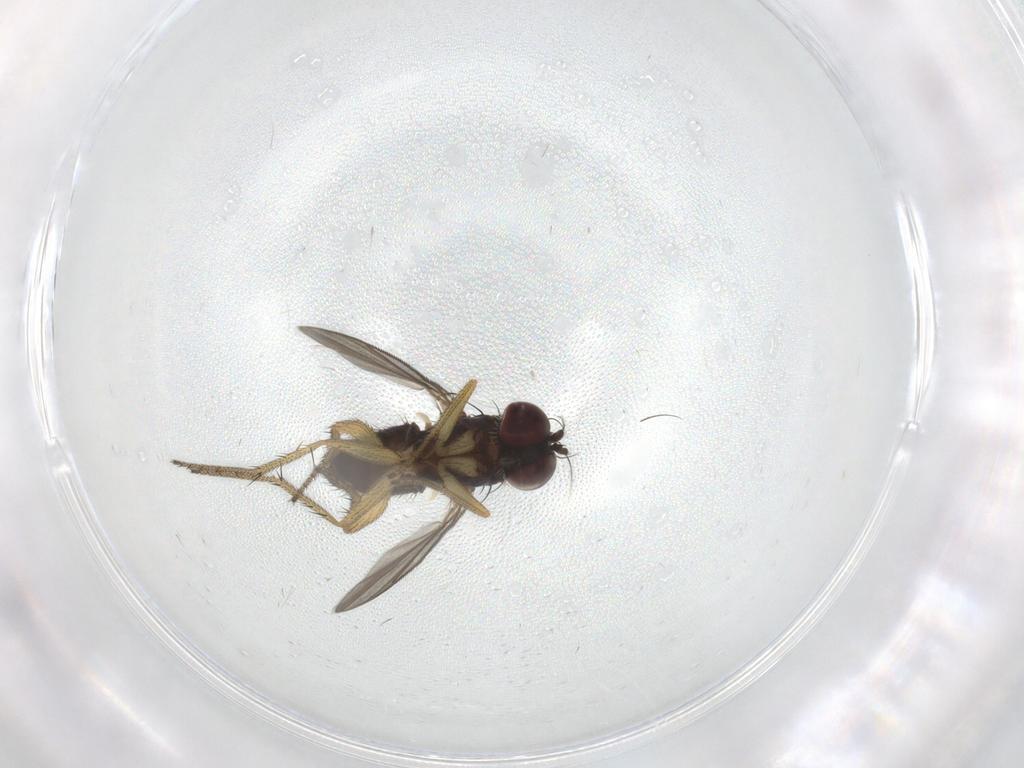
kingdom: Animalia
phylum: Arthropoda
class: Insecta
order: Diptera
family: Dolichopodidae
